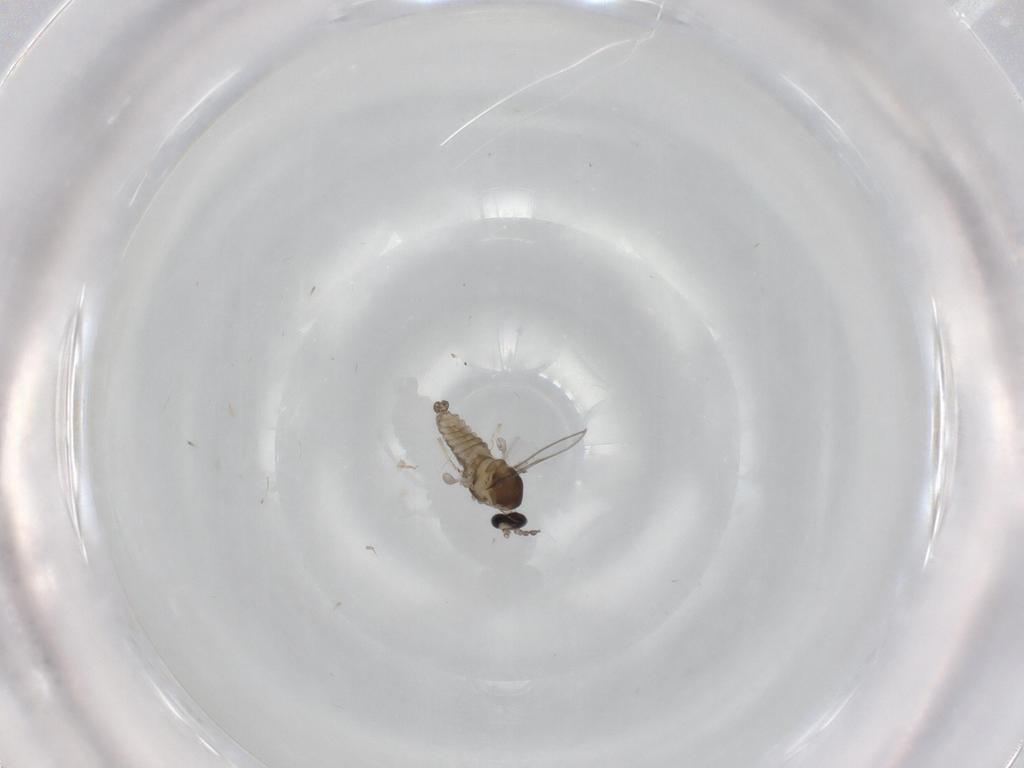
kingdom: Animalia
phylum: Arthropoda
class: Insecta
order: Diptera
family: Cecidomyiidae
